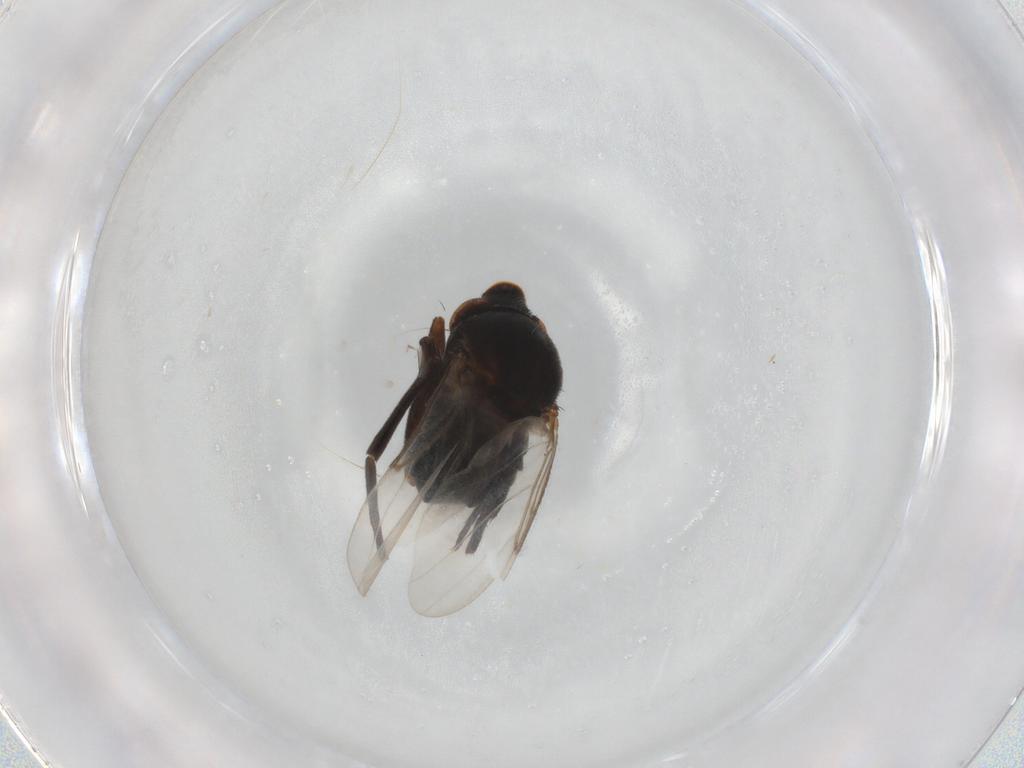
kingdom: Animalia
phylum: Arthropoda
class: Insecta
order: Diptera
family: Phoridae
